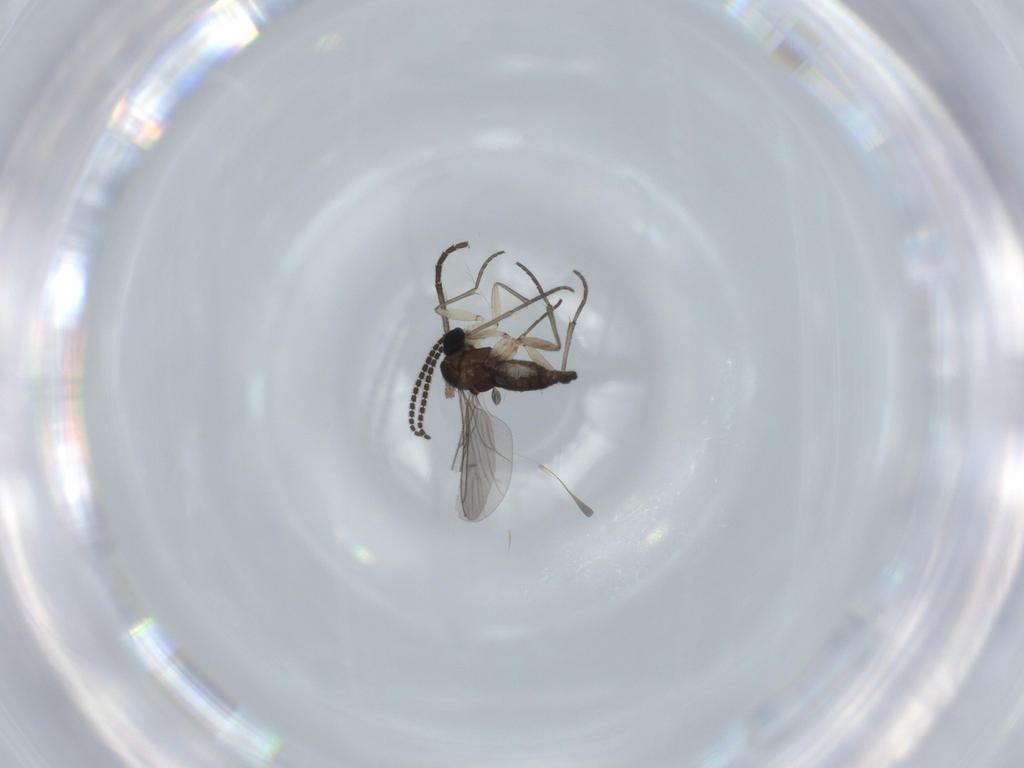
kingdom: Animalia
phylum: Arthropoda
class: Insecta
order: Diptera
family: Sciaridae
